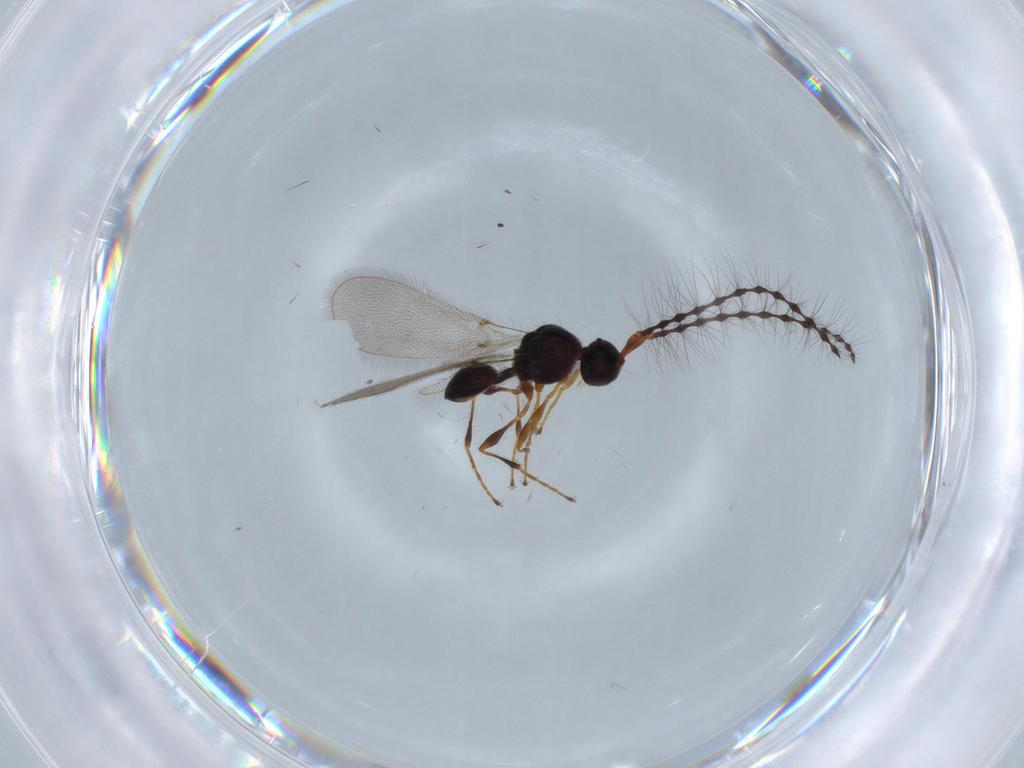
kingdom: Animalia
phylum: Arthropoda
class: Insecta
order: Hymenoptera
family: Diapriidae
